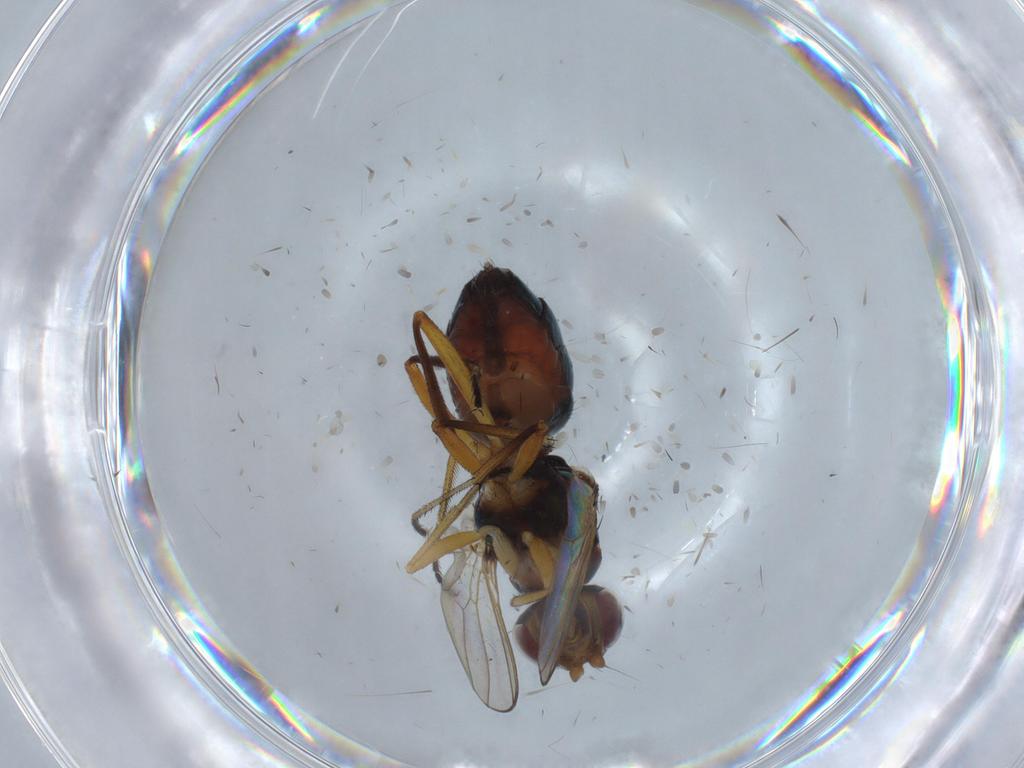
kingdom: Animalia
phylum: Arthropoda
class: Insecta
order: Diptera
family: Sepsidae
